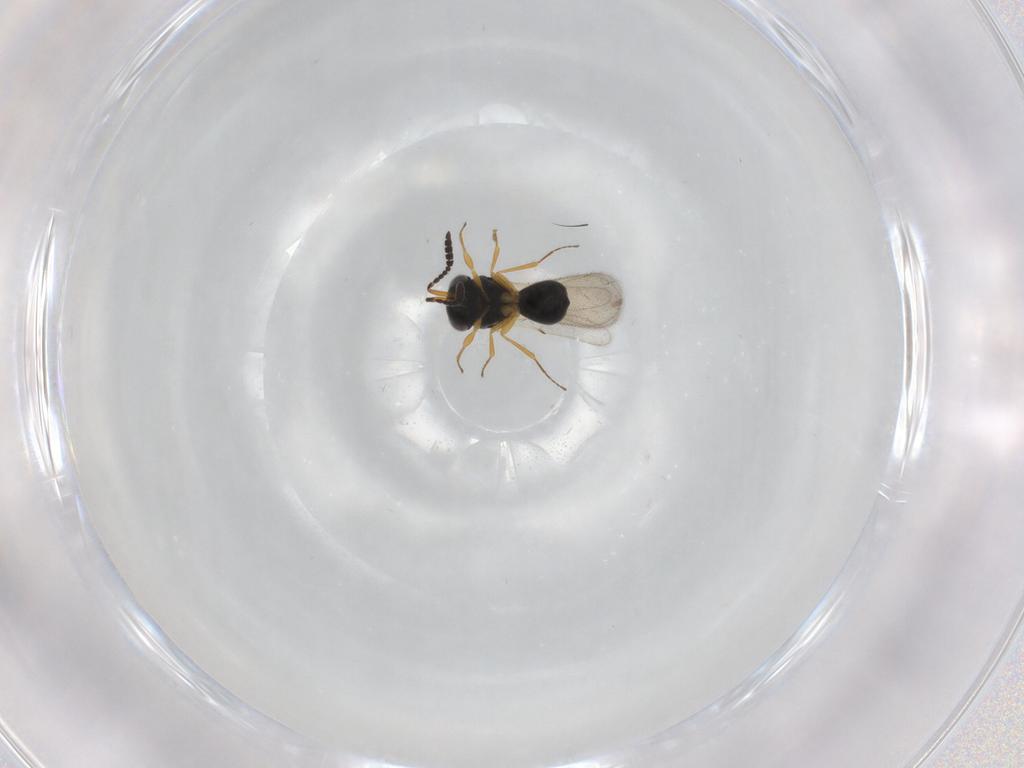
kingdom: Animalia
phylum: Arthropoda
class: Insecta
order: Hymenoptera
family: Scelionidae
